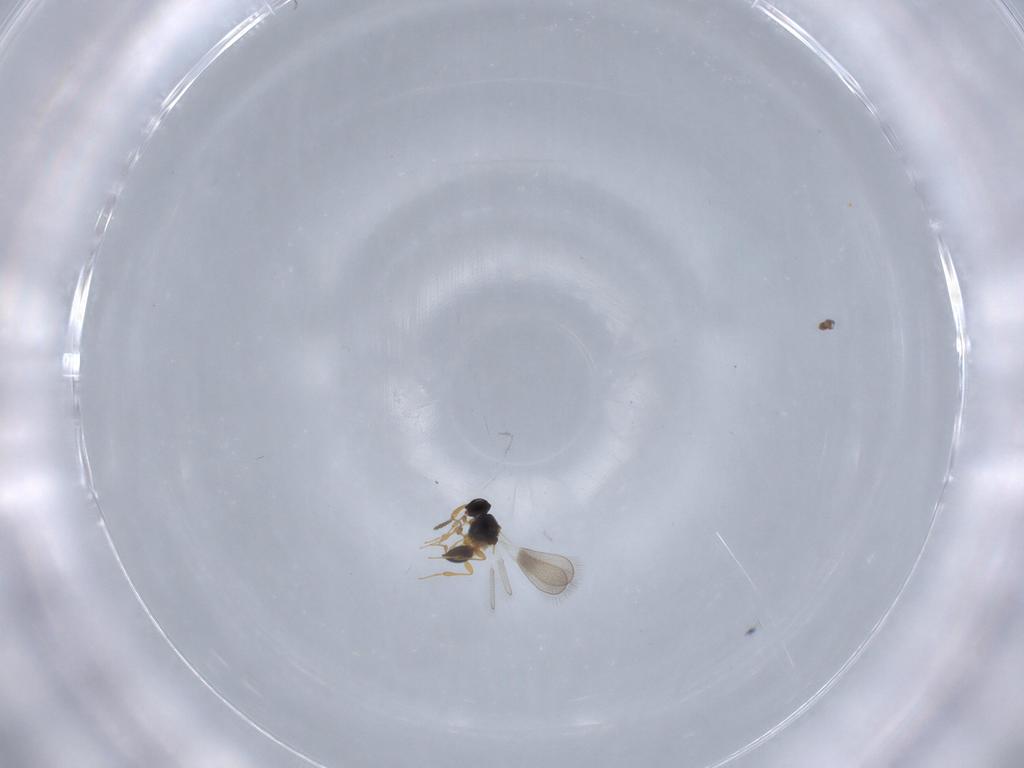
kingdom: Animalia
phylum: Arthropoda
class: Insecta
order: Hymenoptera
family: Platygastridae
